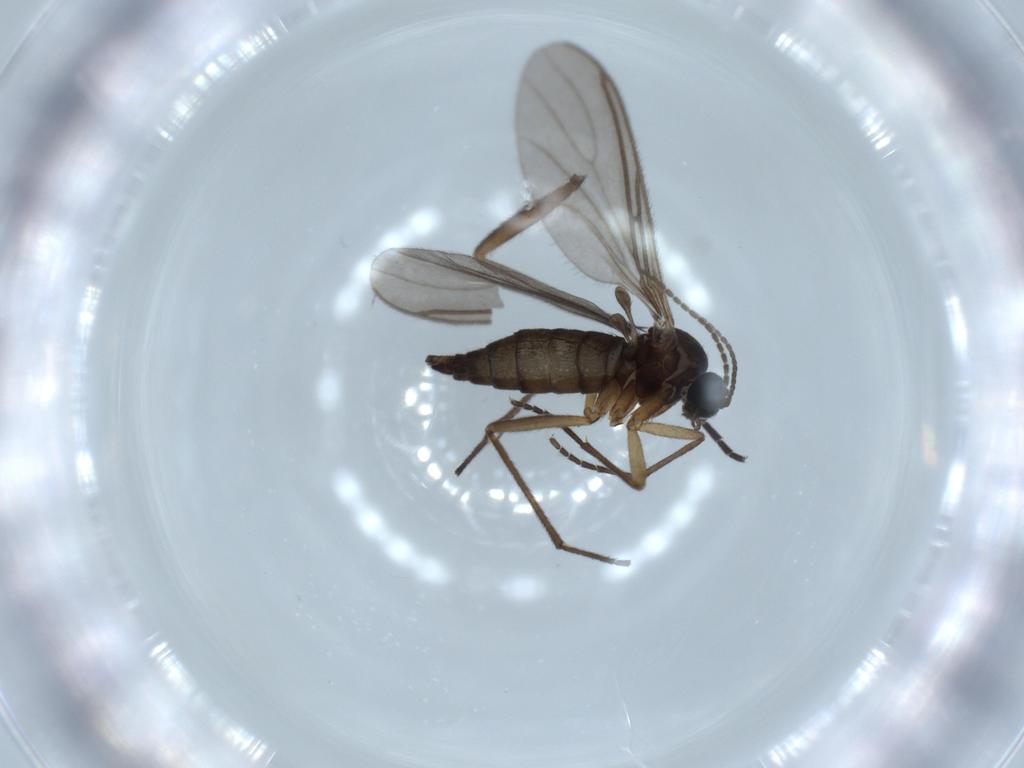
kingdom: Animalia
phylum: Arthropoda
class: Insecta
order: Diptera
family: Sciaridae
